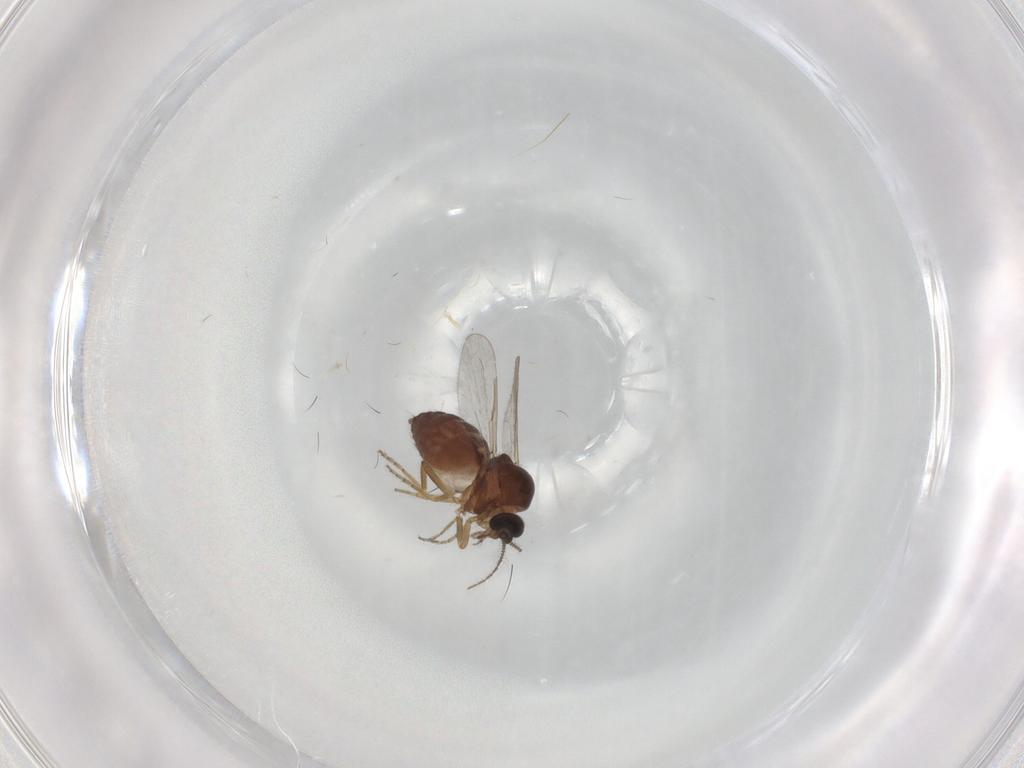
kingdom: Animalia
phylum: Arthropoda
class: Insecta
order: Diptera
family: Ceratopogonidae
